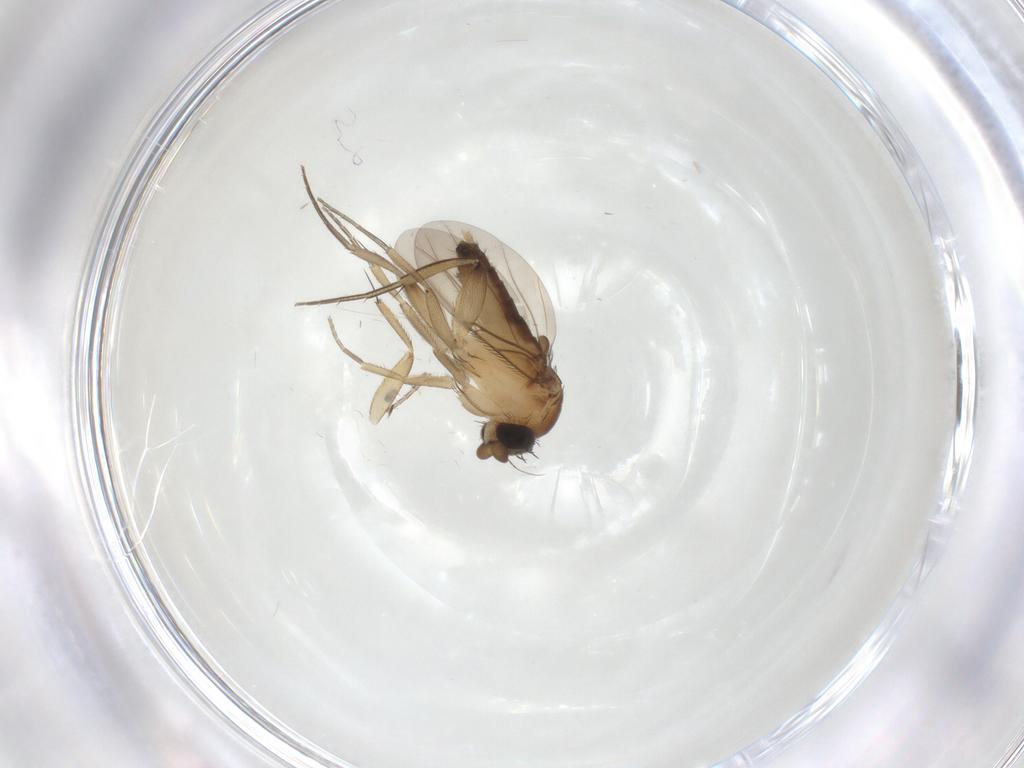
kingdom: Animalia
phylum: Arthropoda
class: Insecta
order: Diptera
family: Phoridae
